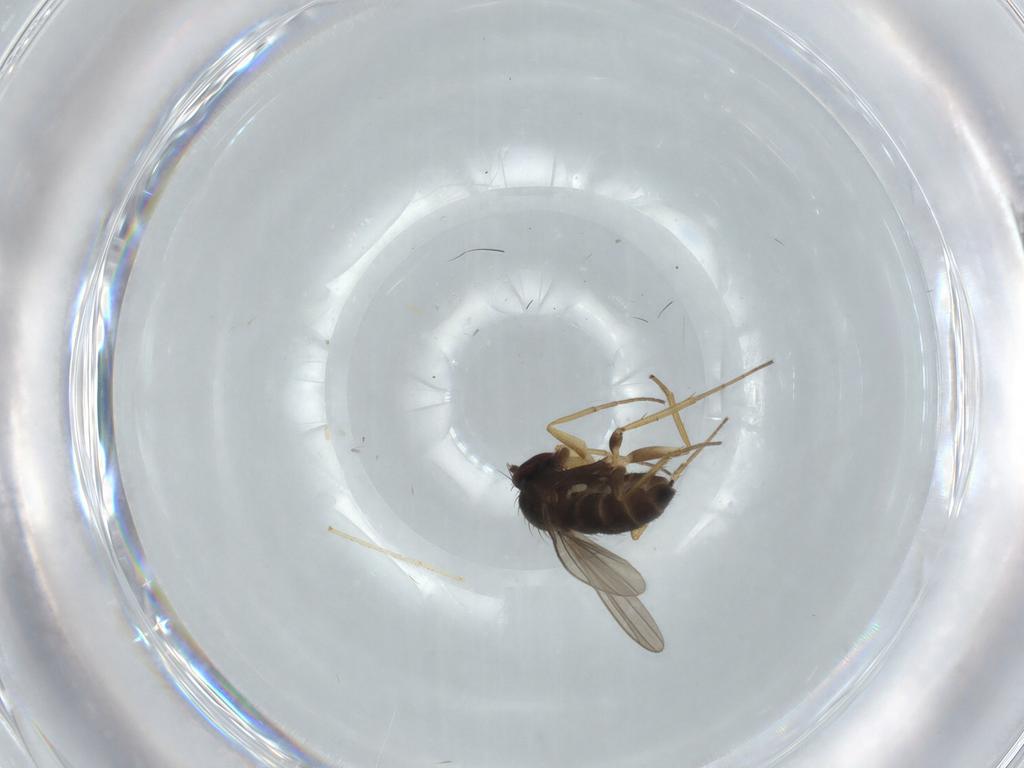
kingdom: Animalia
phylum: Arthropoda
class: Insecta
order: Diptera
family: Dolichopodidae
